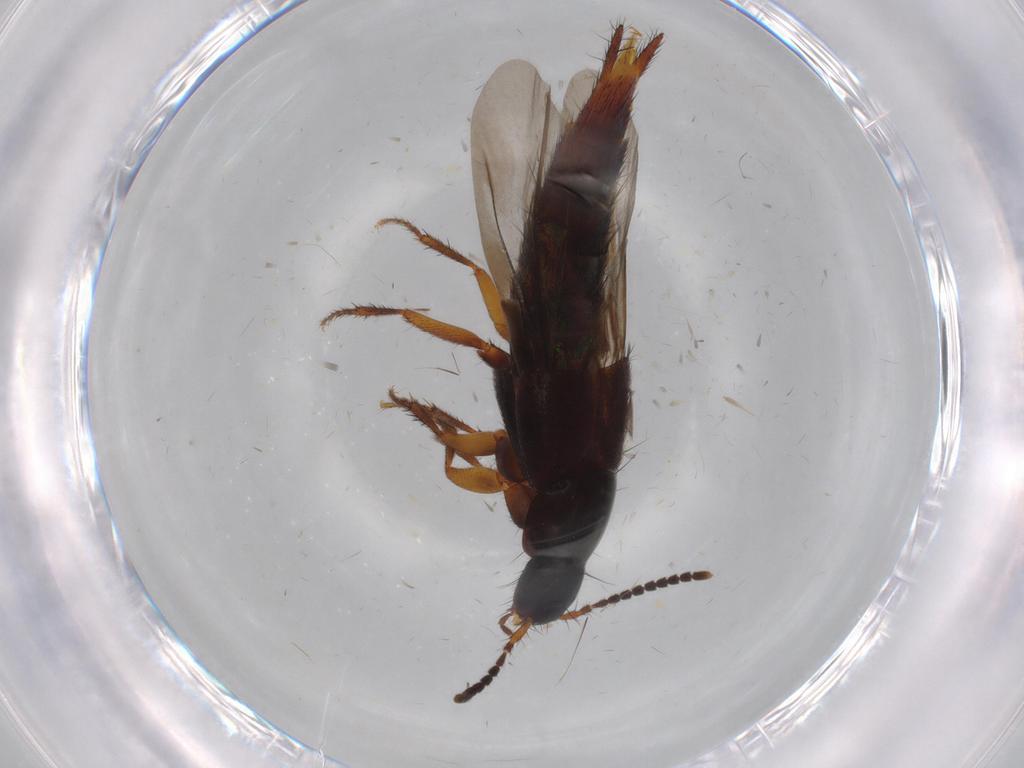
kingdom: Animalia
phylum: Arthropoda
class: Insecta
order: Coleoptera
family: Staphylinidae
